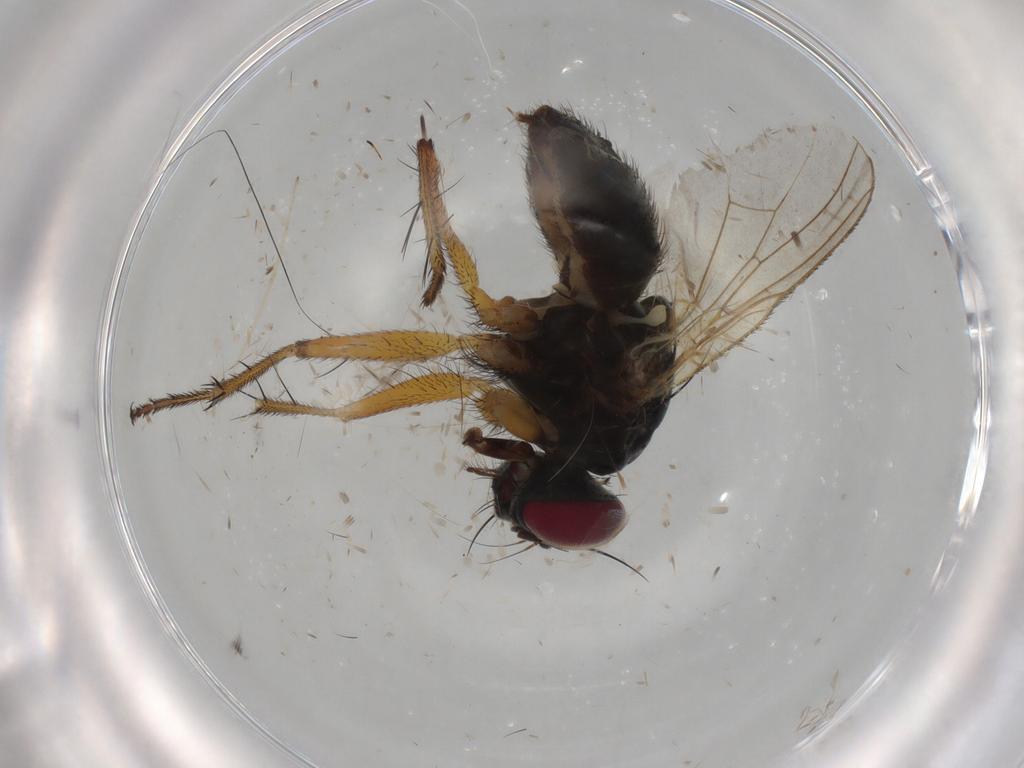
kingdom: Animalia
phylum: Arthropoda
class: Insecta
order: Diptera
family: Muscidae
